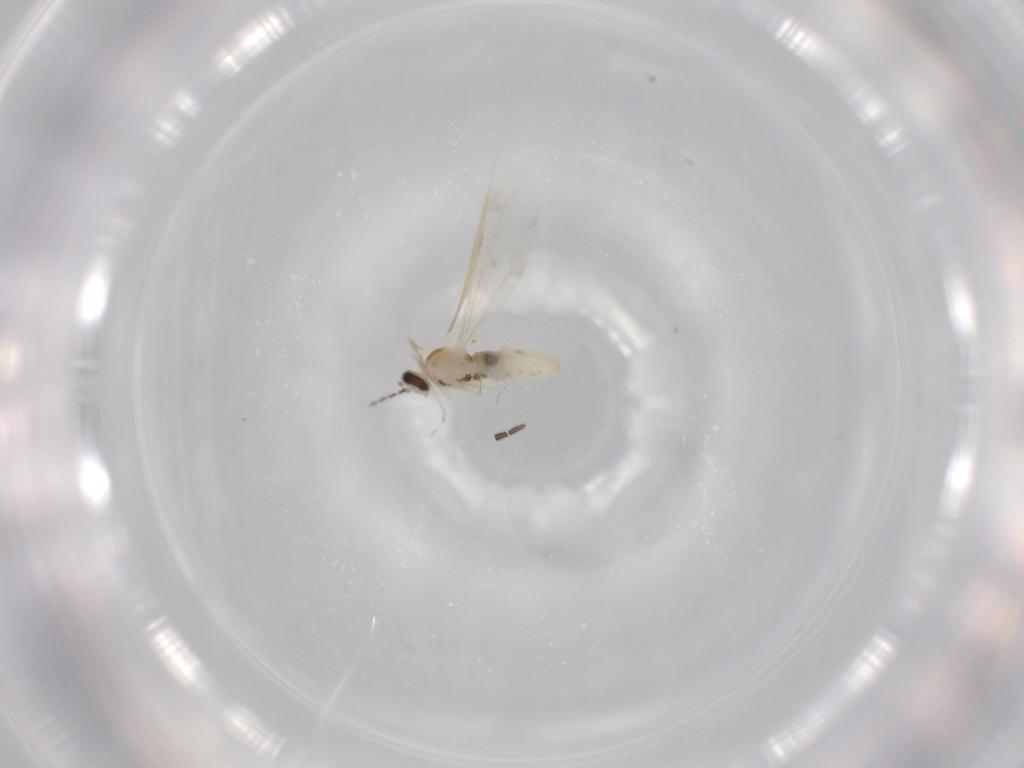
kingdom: Animalia
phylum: Arthropoda
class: Insecta
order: Diptera
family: Cecidomyiidae
